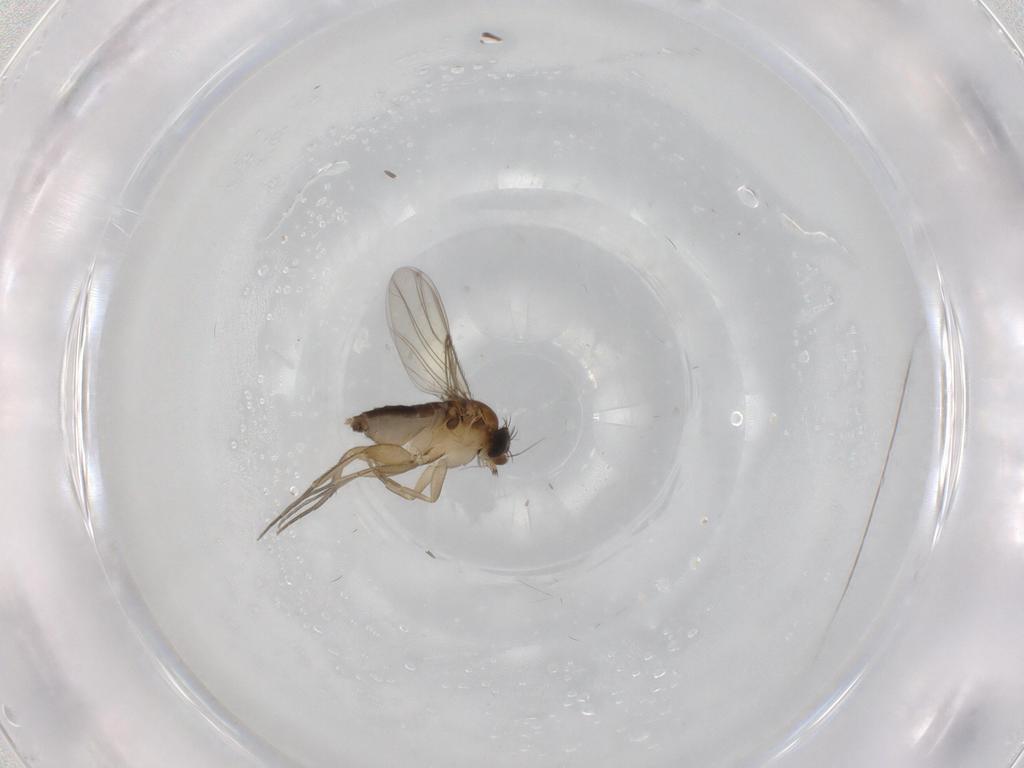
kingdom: Animalia
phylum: Arthropoda
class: Insecta
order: Diptera
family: Phoridae
